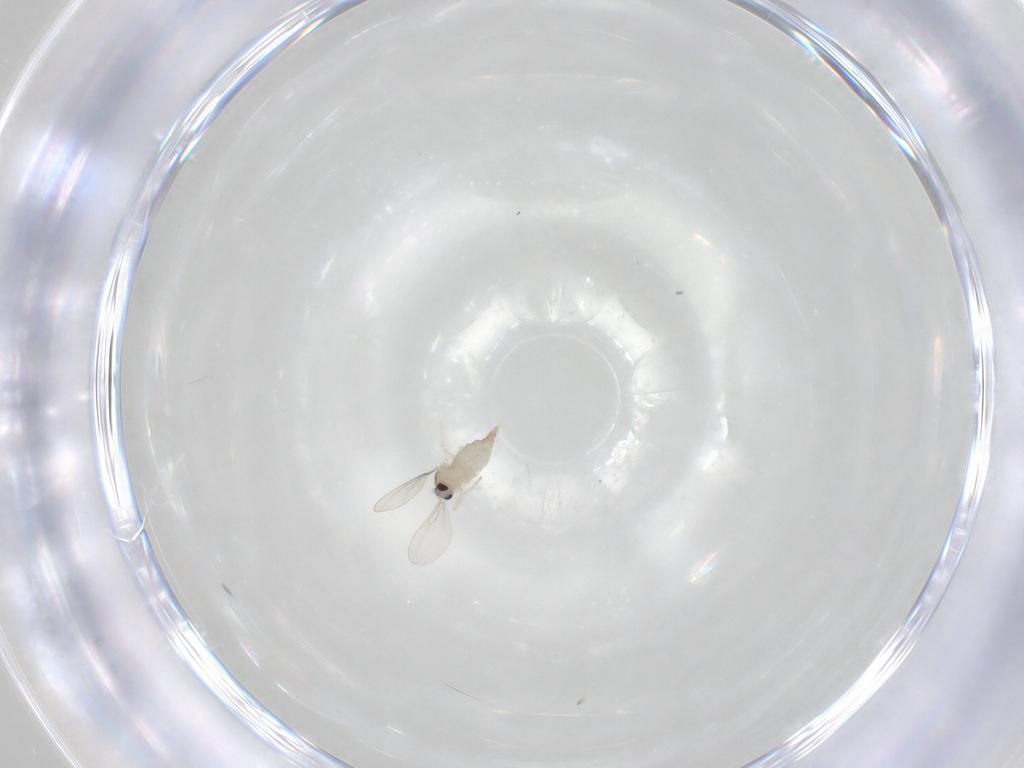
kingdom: Animalia
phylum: Arthropoda
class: Insecta
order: Diptera
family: Cecidomyiidae
